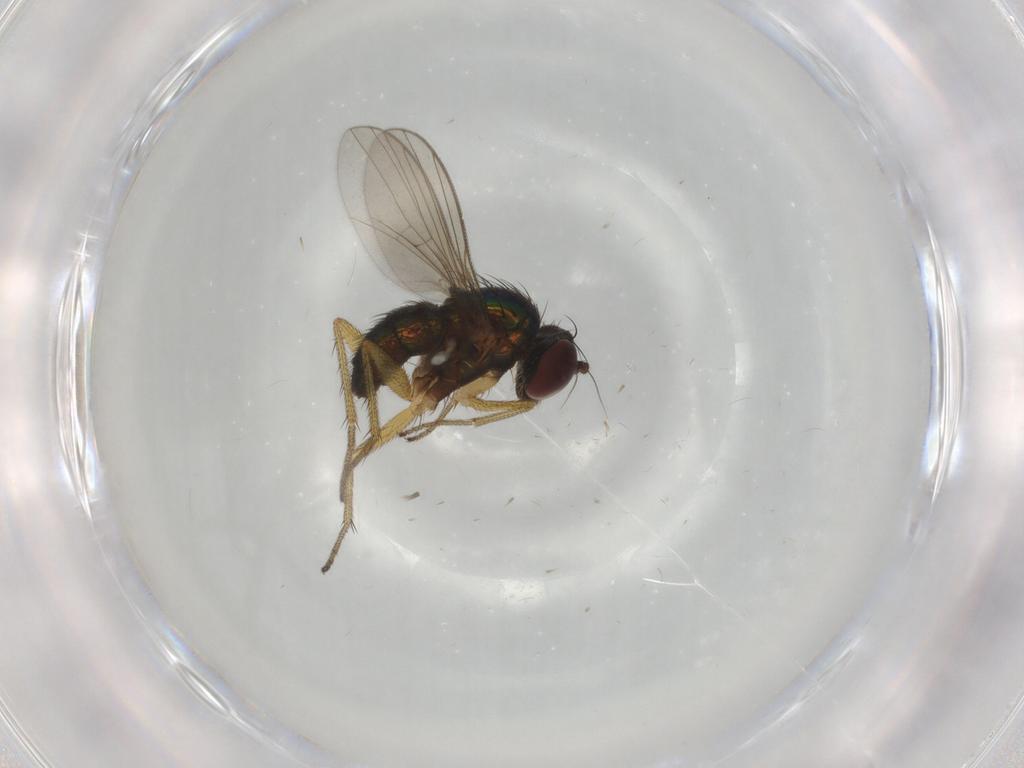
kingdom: Animalia
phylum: Arthropoda
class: Insecta
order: Diptera
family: Dolichopodidae
